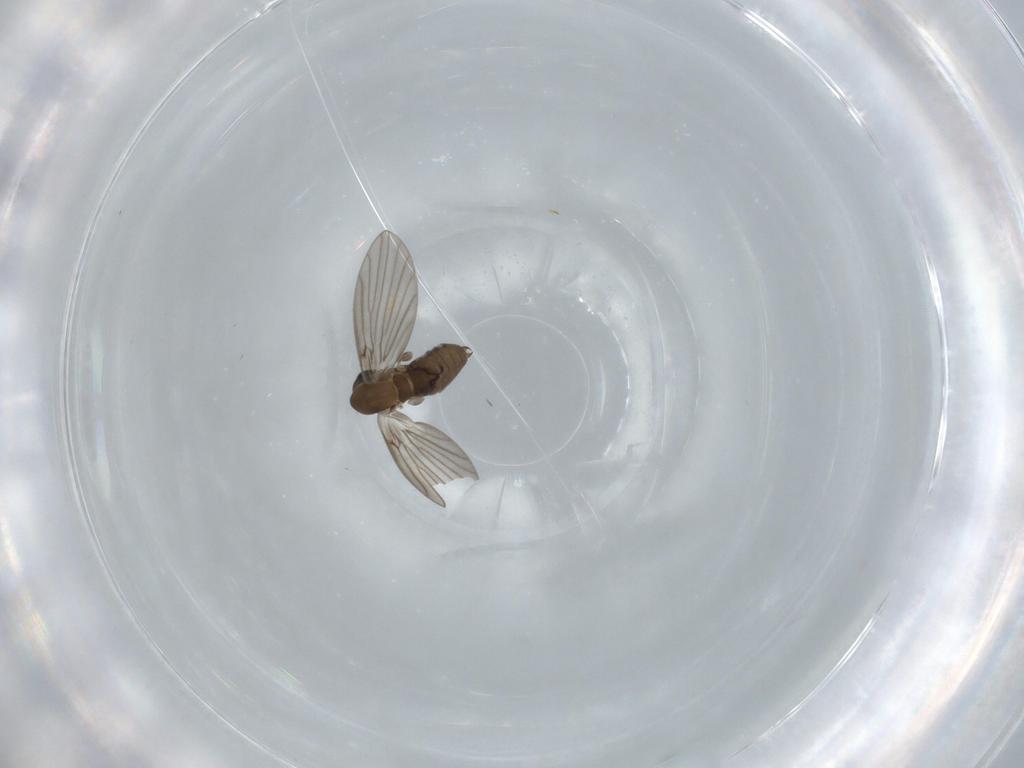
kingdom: Animalia
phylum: Arthropoda
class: Insecta
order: Diptera
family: Psychodidae
